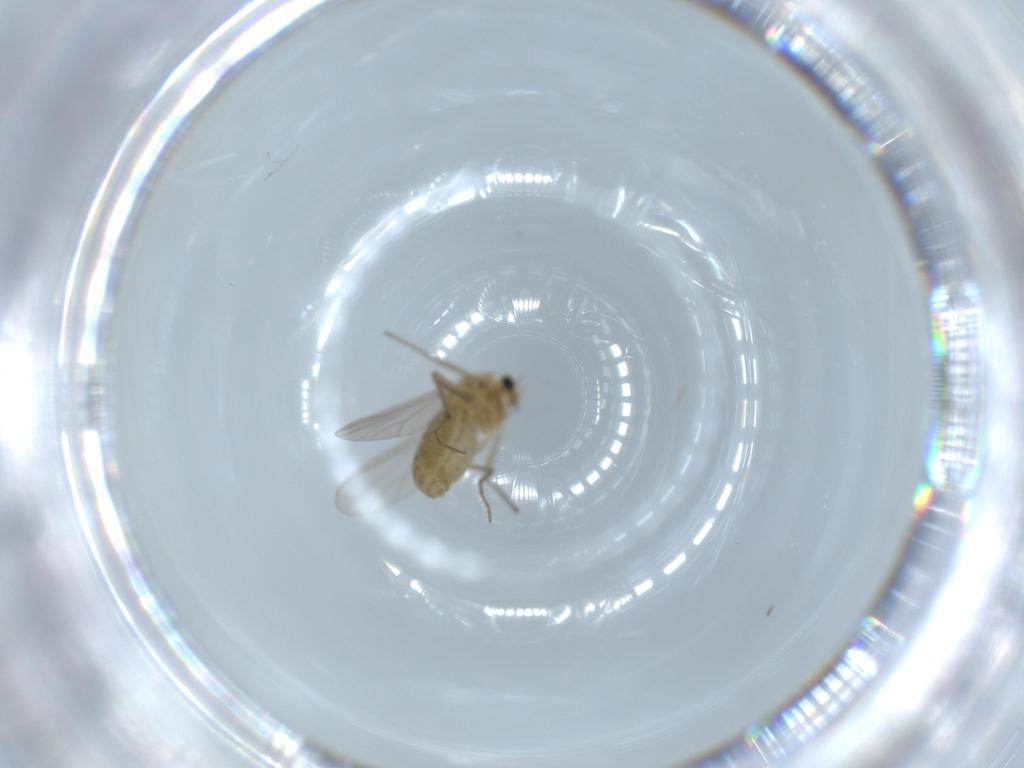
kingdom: Animalia
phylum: Arthropoda
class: Insecta
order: Diptera
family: Chironomidae
